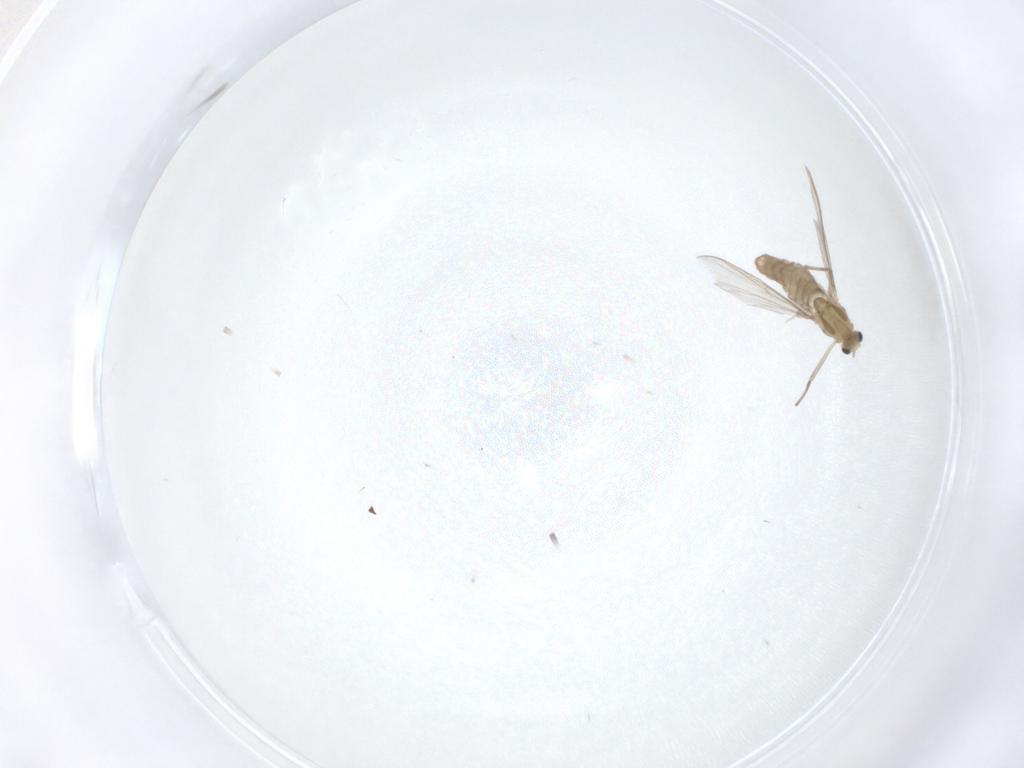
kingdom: Animalia
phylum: Arthropoda
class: Insecta
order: Diptera
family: Chironomidae
